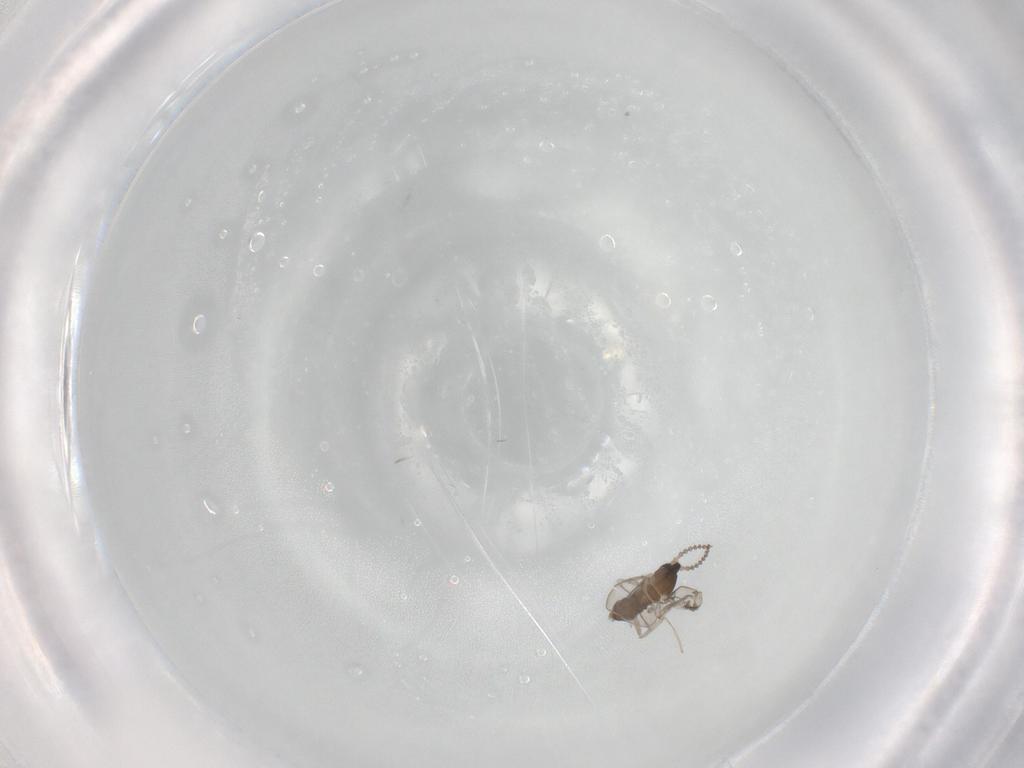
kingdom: Animalia
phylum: Arthropoda
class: Insecta
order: Diptera
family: Cecidomyiidae
